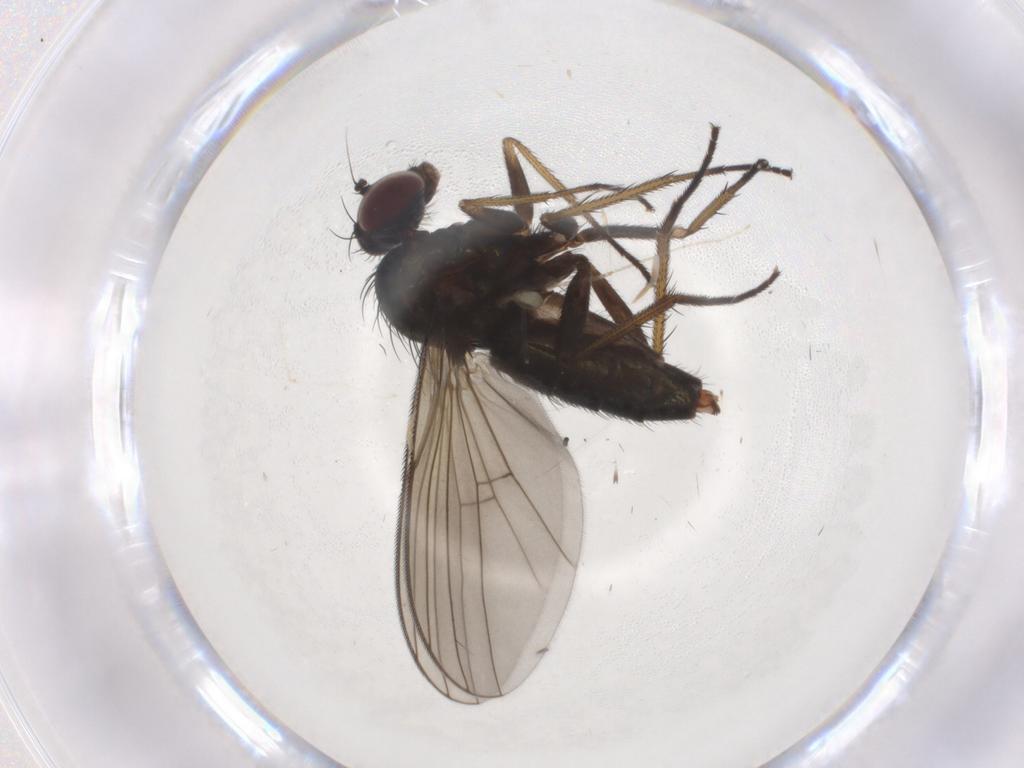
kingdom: Animalia
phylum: Arthropoda
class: Insecta
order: Diptera
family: Dolichopodidae
